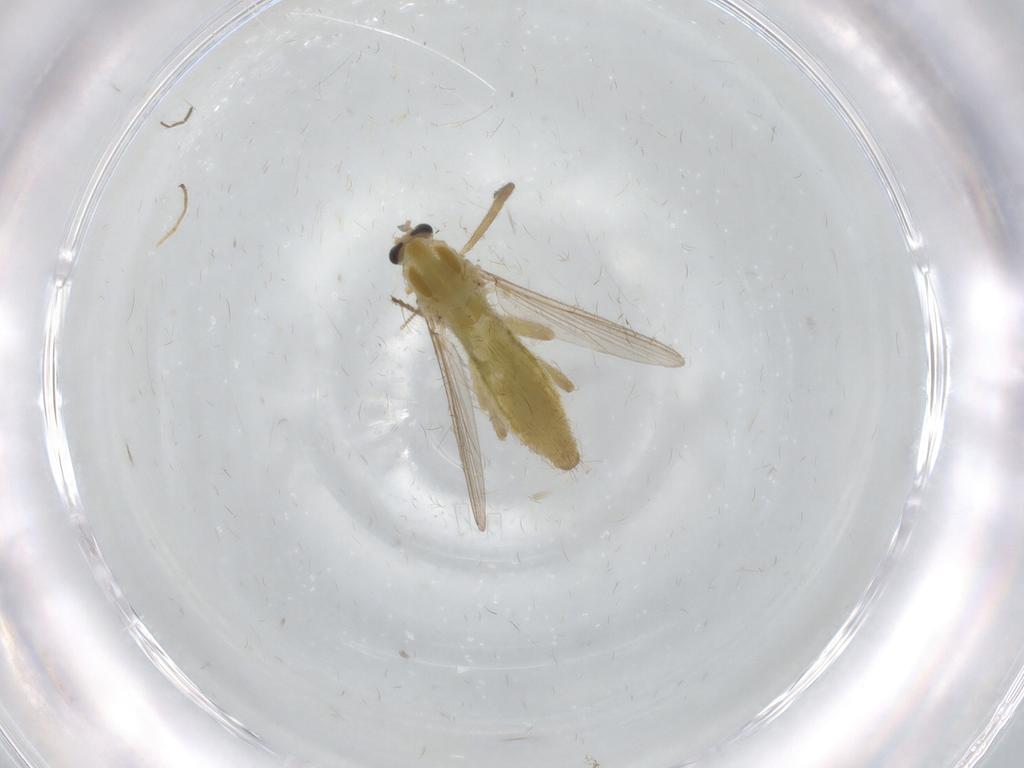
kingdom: Animalia
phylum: Arthropoda
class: Insecta
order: Diptera
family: Chironomidae
